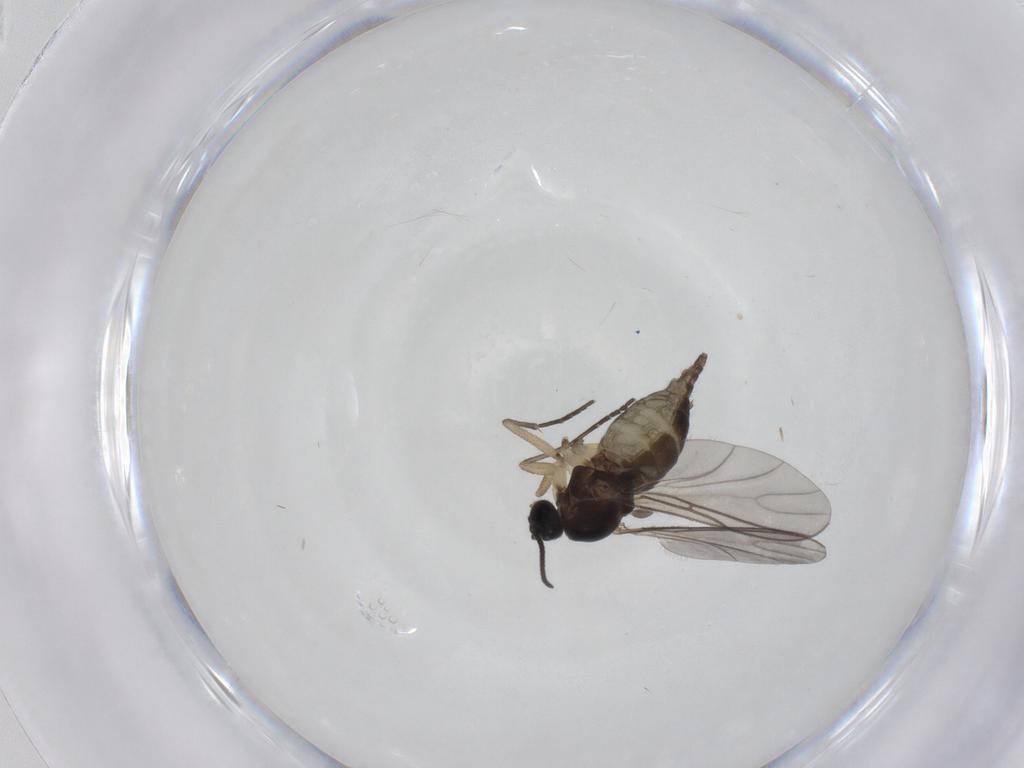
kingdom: Animalia
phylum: Arthropoda
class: Insecta
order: Diptera
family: Sciaridae
